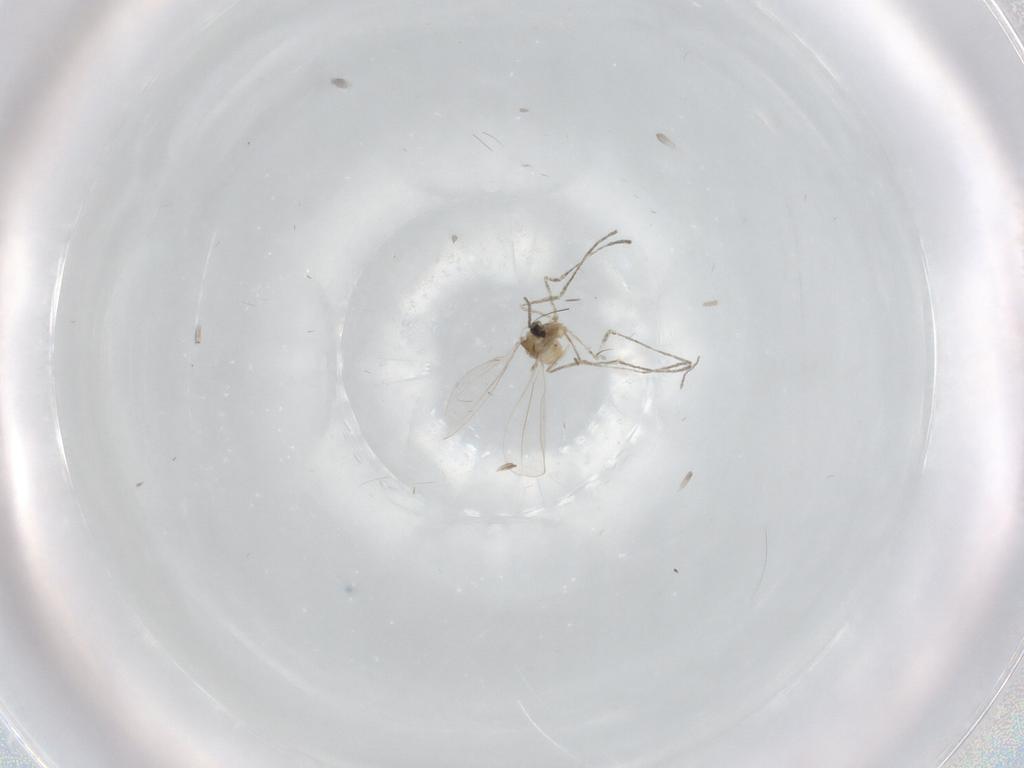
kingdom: Animalia
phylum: Arthropoda
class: Insecta
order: Diptera
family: Cecidomyiidae
